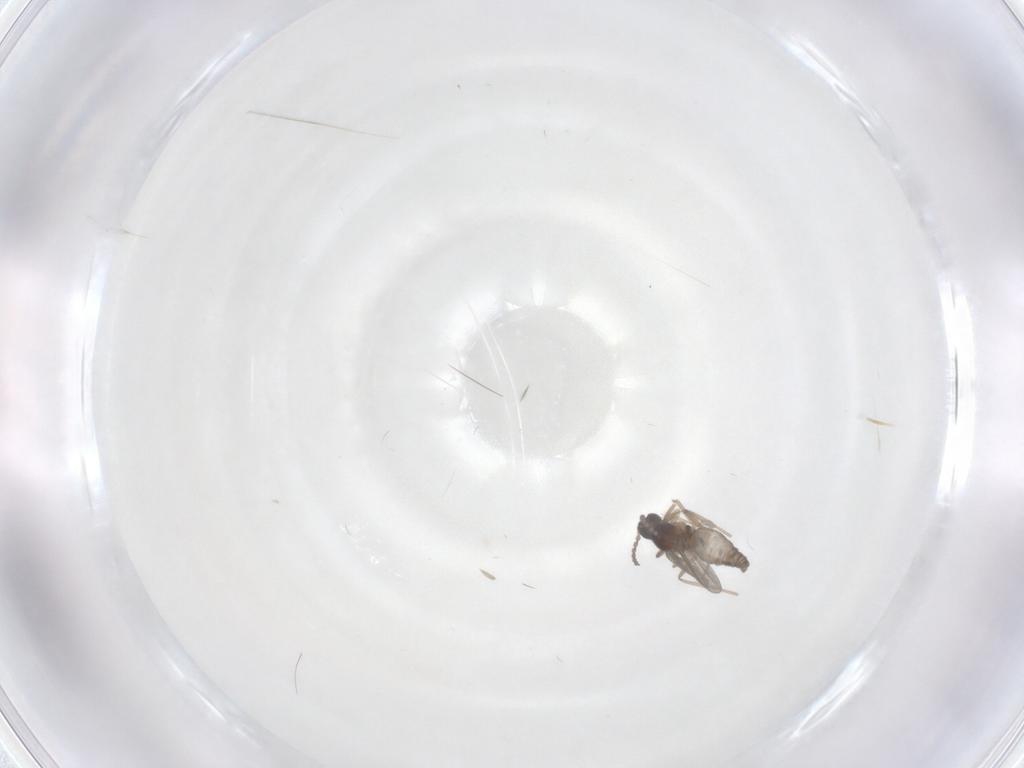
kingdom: Animalia
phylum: Arthropoda
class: Insecta
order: Diptera
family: Cecidomyiidae
